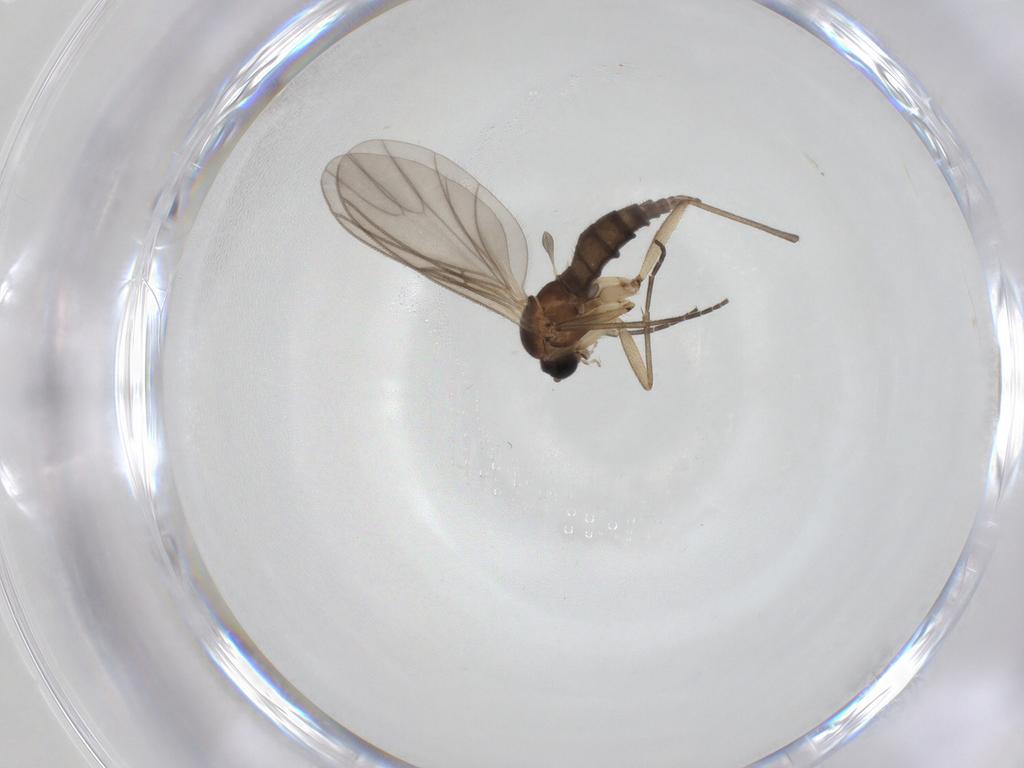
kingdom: Animalia
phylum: Arthropoda
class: Insecta
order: Diptera
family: Sciaridae
